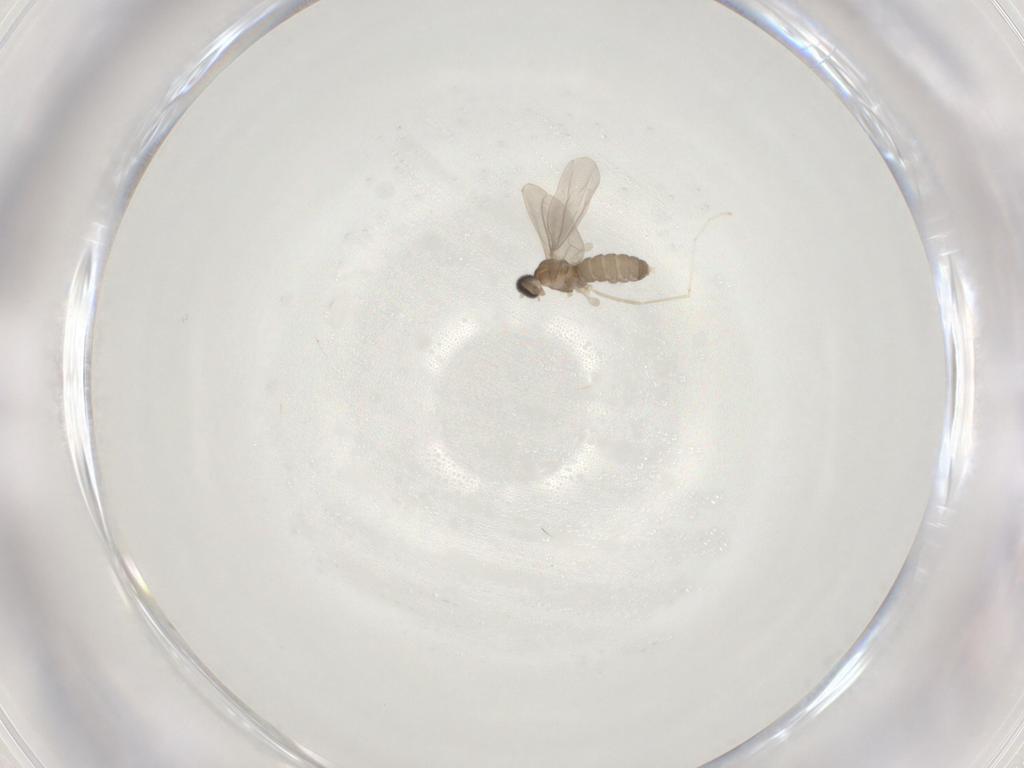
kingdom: Animalia
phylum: Arthropoda
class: Insecta
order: Diptera
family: Cecidomyiidae
